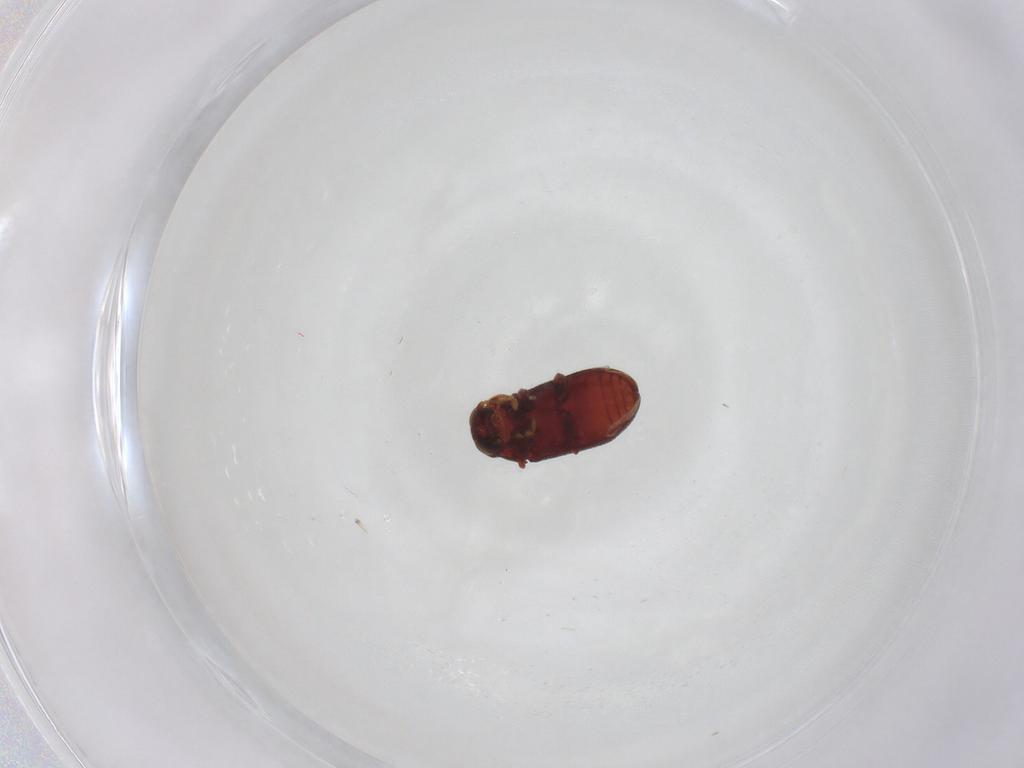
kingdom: Animalia
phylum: Arthropoda
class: Insecta
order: Coleoptera
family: Ptinidae
